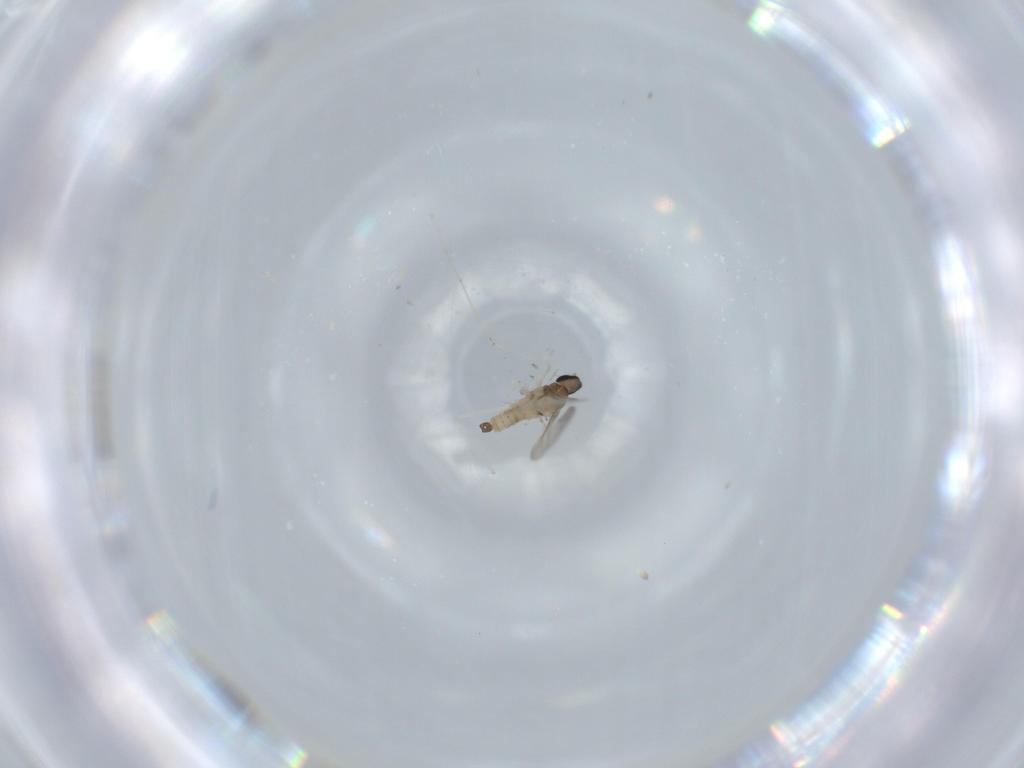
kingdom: Animalia
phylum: Arthropoda
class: Insecta
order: Diptera
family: Cecidomyiidae
